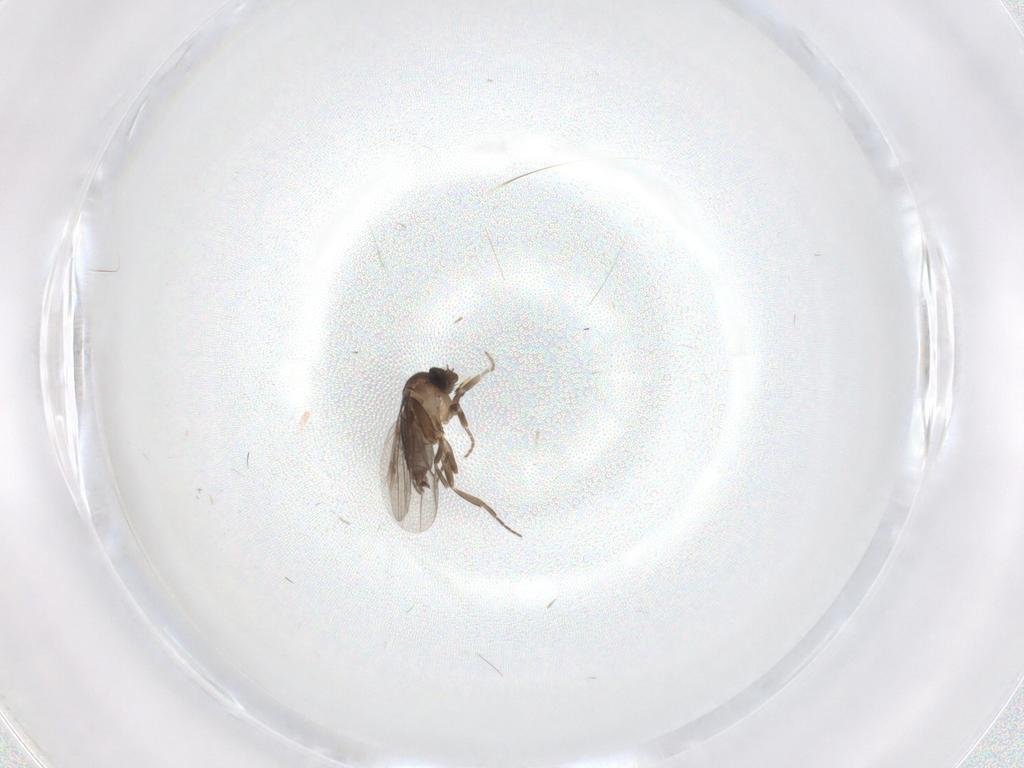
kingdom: Animalia
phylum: Arthropoda
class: Insecta
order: Diptera
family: Phoridae
